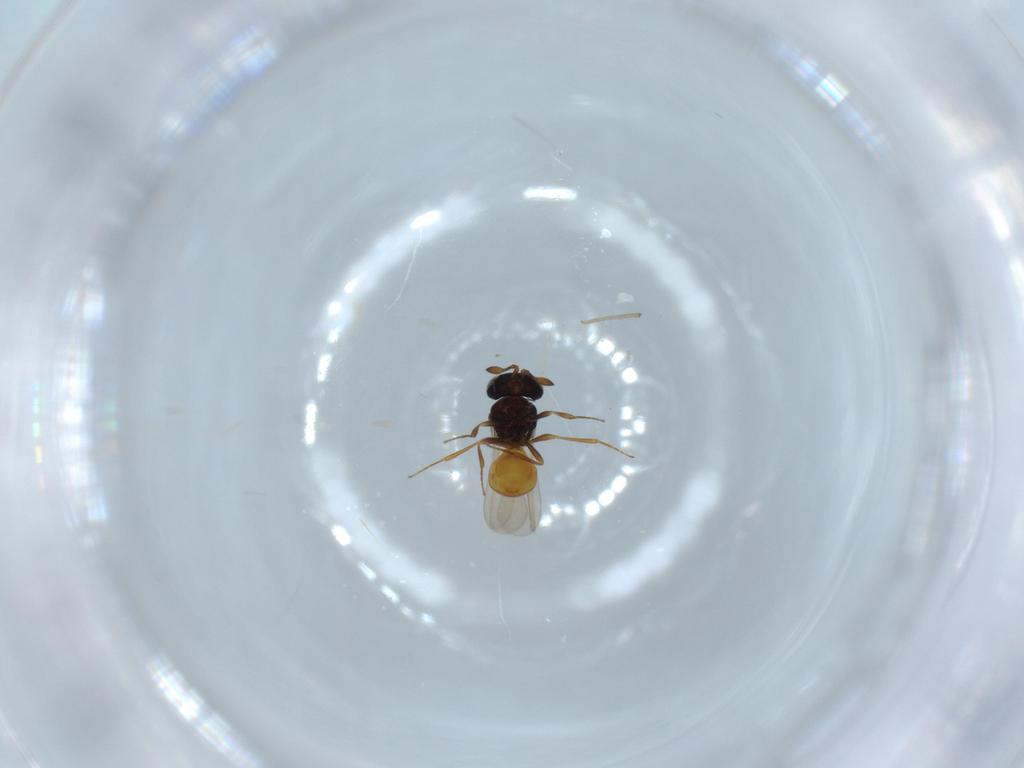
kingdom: Animalia
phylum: Arthropoda
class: Insecta
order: Hymenoptera
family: Scelionidae
